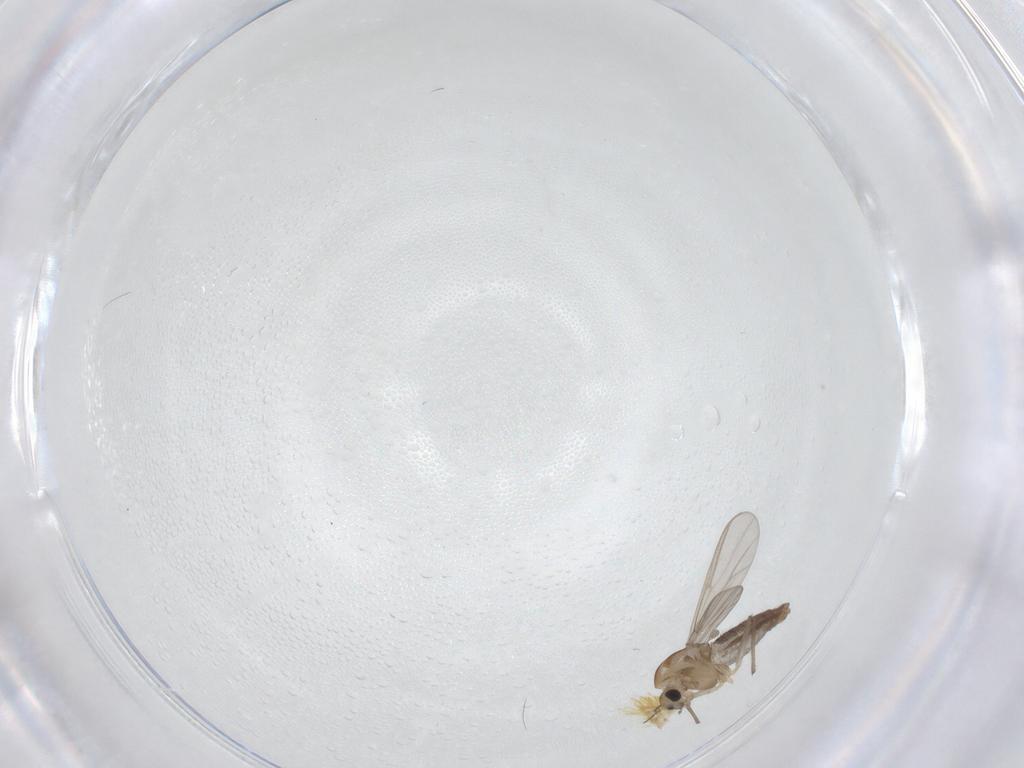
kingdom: Animalia
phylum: Arthropoda
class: Insecta
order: Diptera
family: Chironomidae
